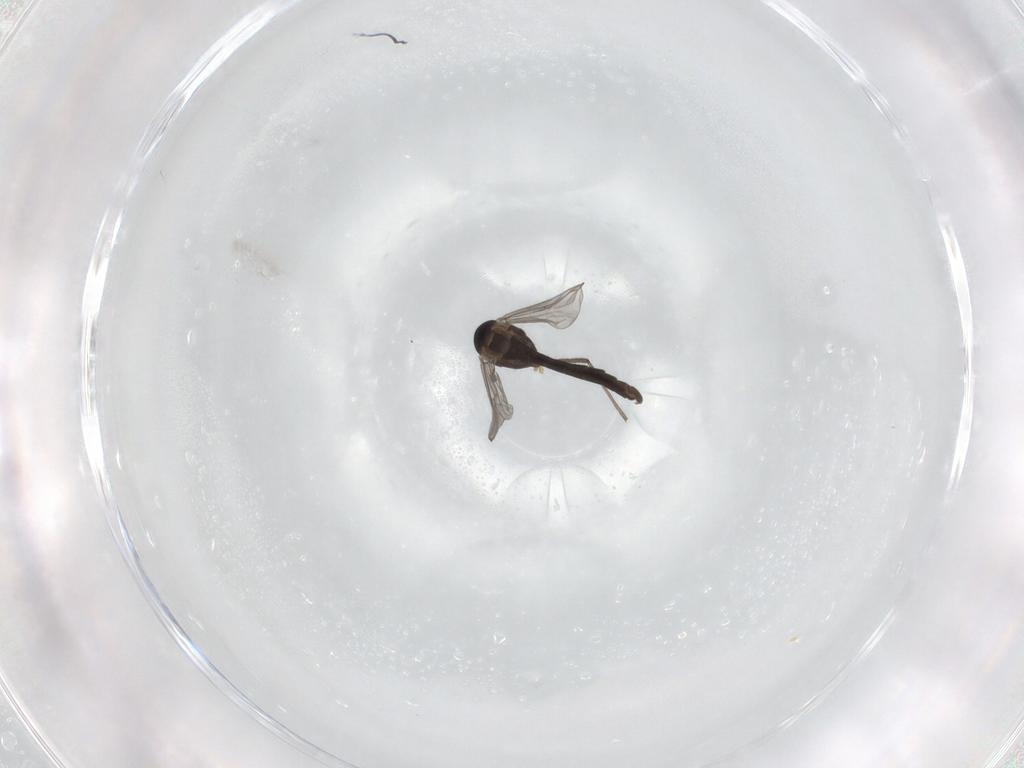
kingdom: Animalia
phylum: Arthropoda
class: Insecta
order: Diptera
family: Chironomidae
